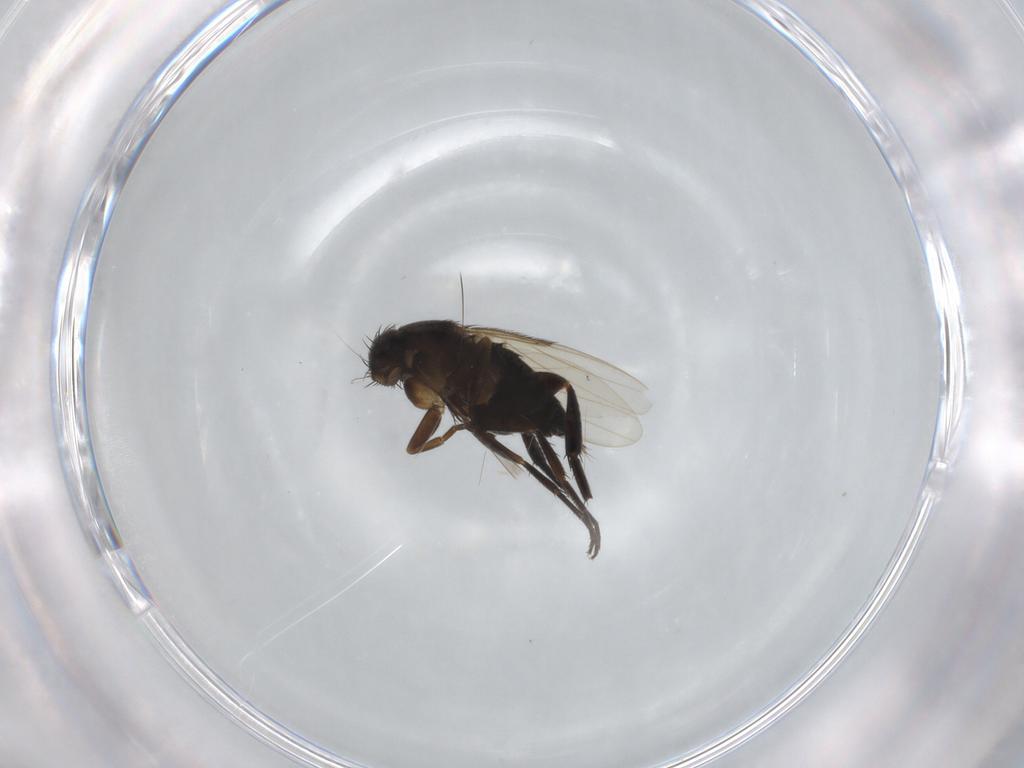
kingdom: Animalia
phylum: Arthropoda
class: Insecta
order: Diptera
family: Phoridae
